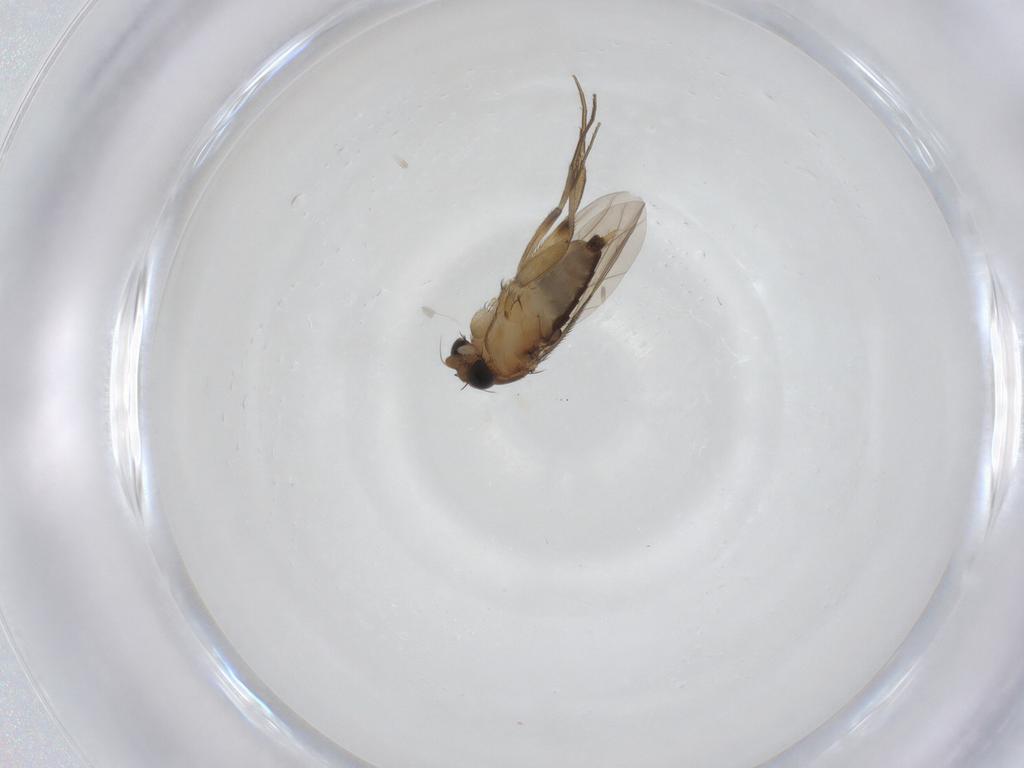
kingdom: Animalia
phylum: Arthropoda
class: Insecta
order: Diptera
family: Phoridae
